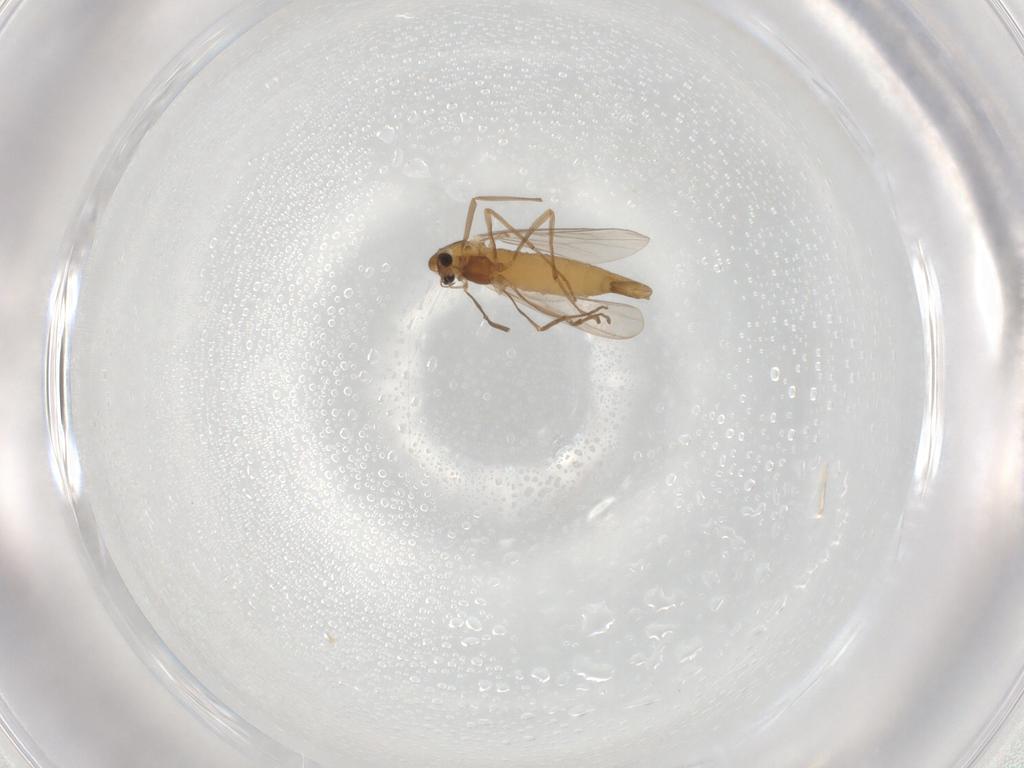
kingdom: Animalia
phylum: Arthropoda
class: Insecta
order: Diptera
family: Ceratopogonidae
